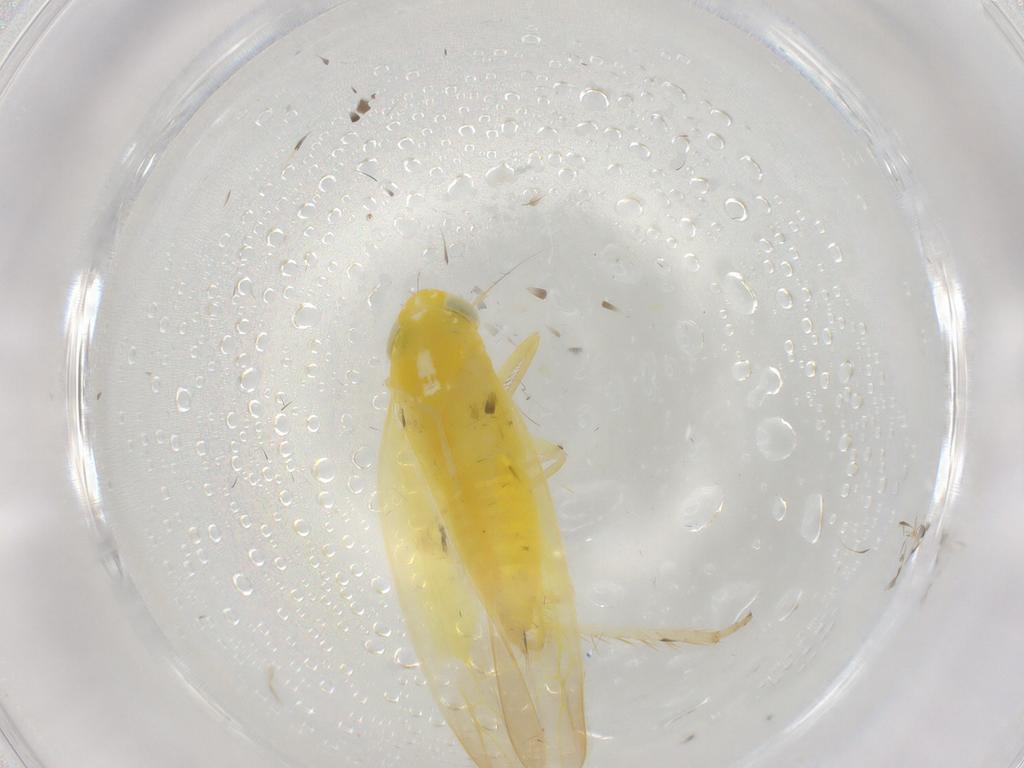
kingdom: Animalia
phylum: Arthropoda
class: Insecta
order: Hemiptera
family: Cicadellidae
